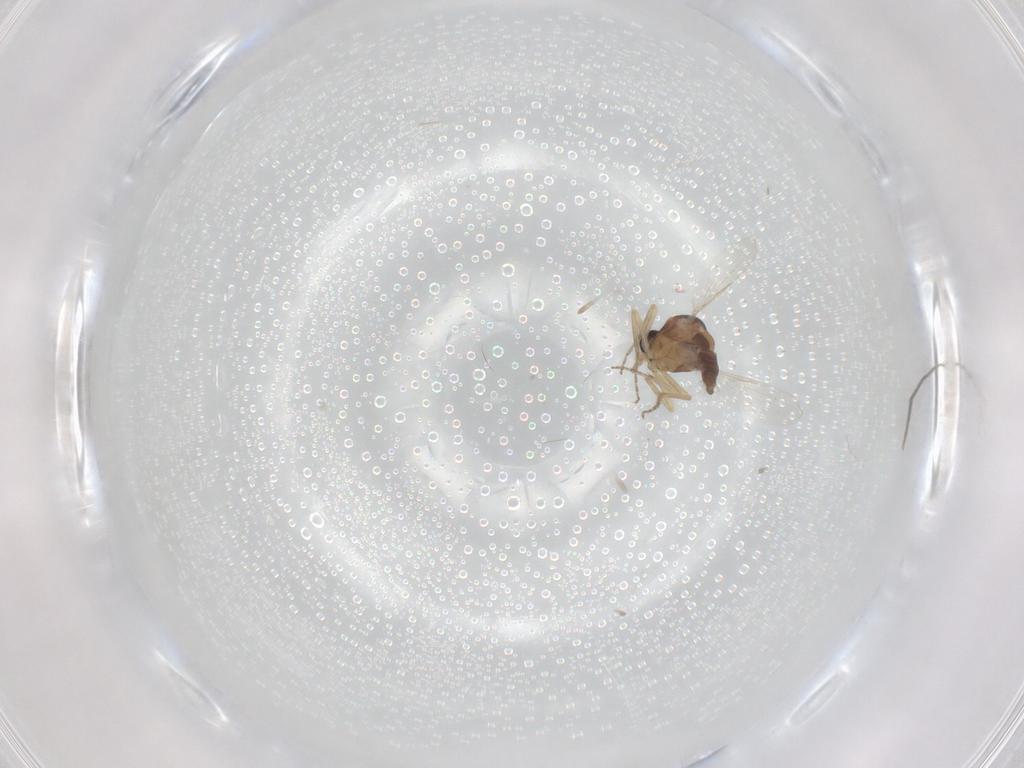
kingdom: Animalia
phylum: Arthropoda
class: Insecta
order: Diptera
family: Ceratopogonidae
